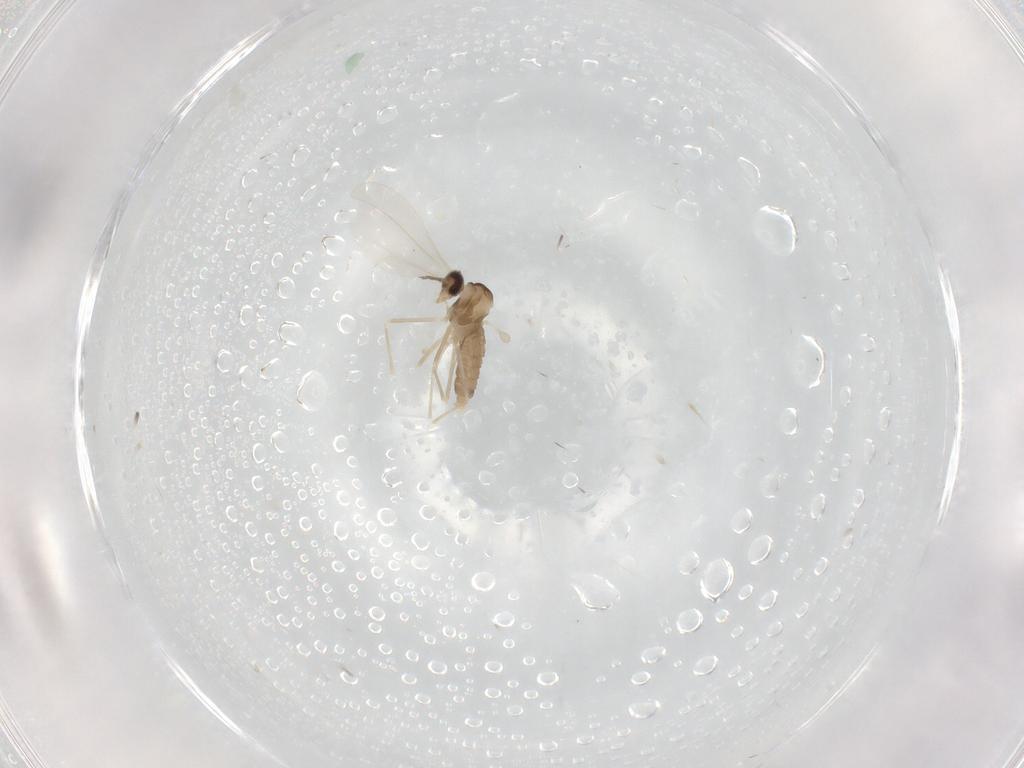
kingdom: Animalia
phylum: Arthropoda
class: Insecta
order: Diptera
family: Cecidomyiidae
